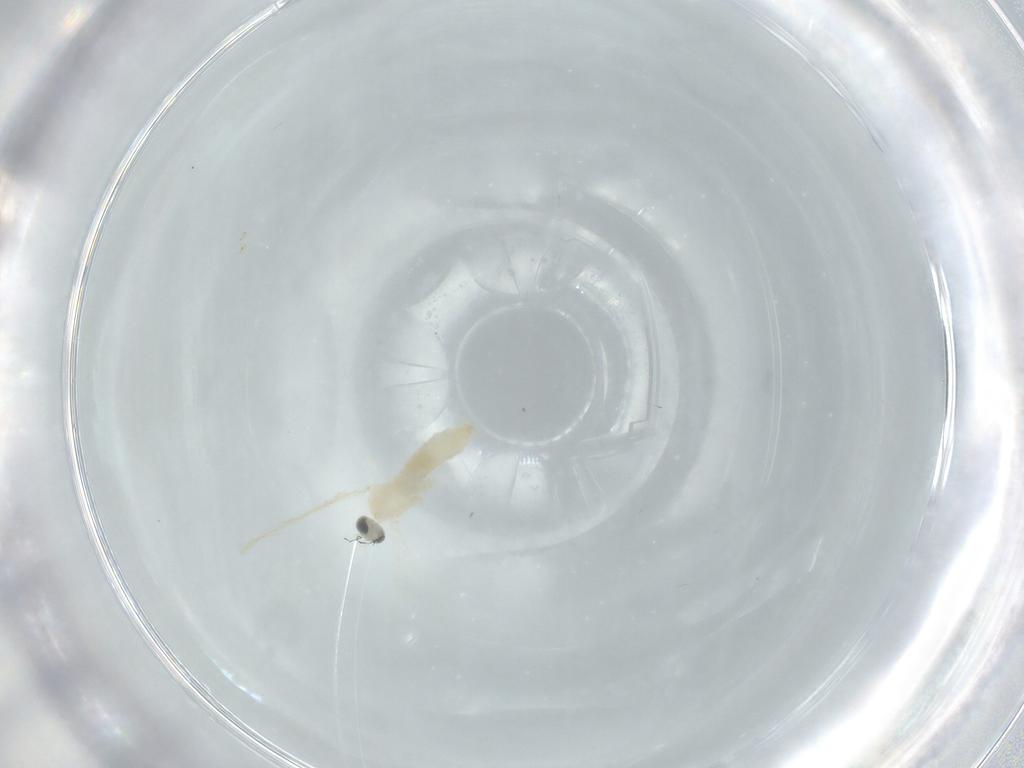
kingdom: Animalia
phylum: Arthropoda
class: Insecta
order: Diptera
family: Cecidomyiidae
